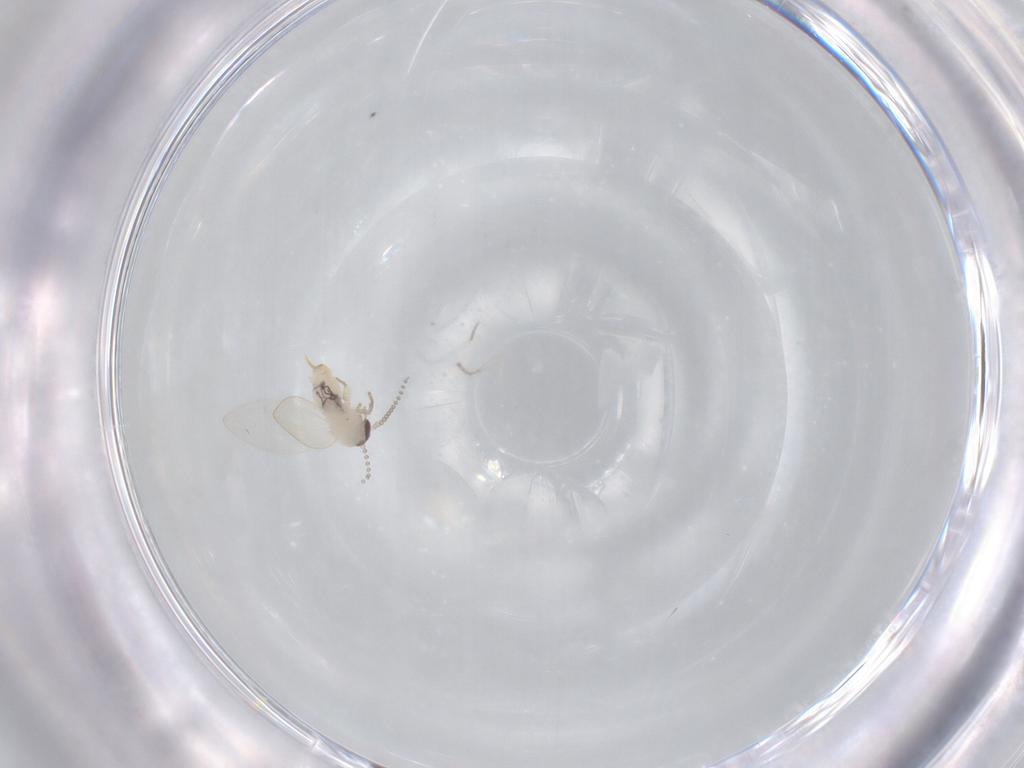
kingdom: Animalia
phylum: Arthropoda
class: Insecta
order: Diptera
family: Psychodidae
